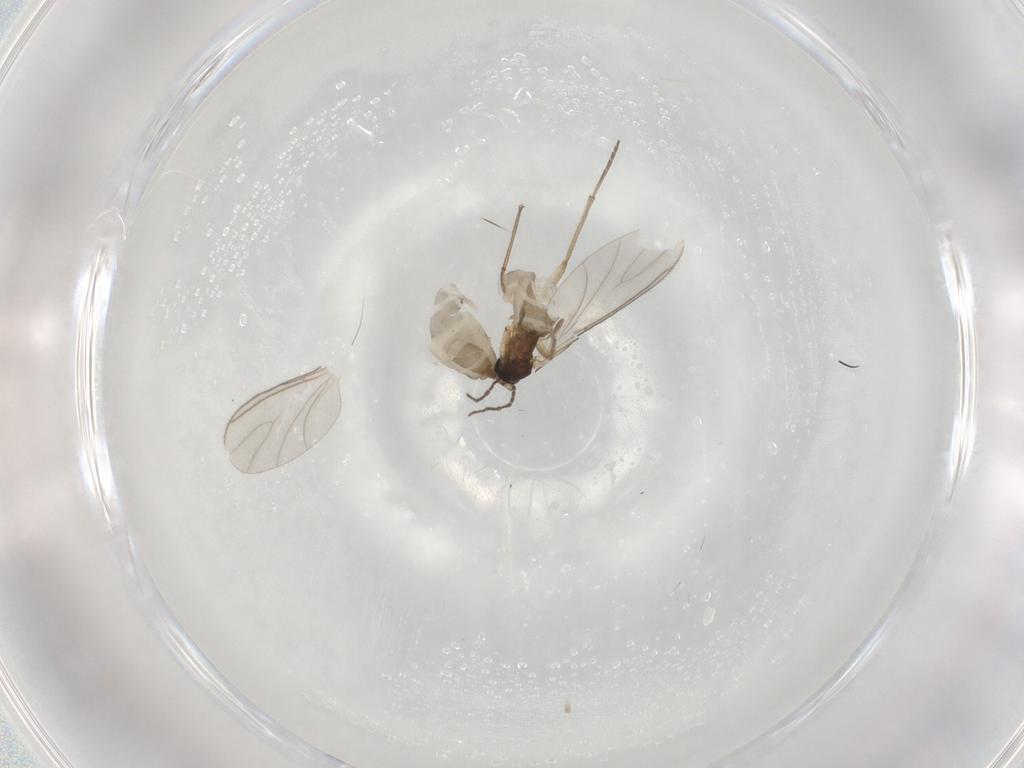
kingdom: Animalia
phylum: Arthropoda
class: Insecta
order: Diptera
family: Sciaridae
